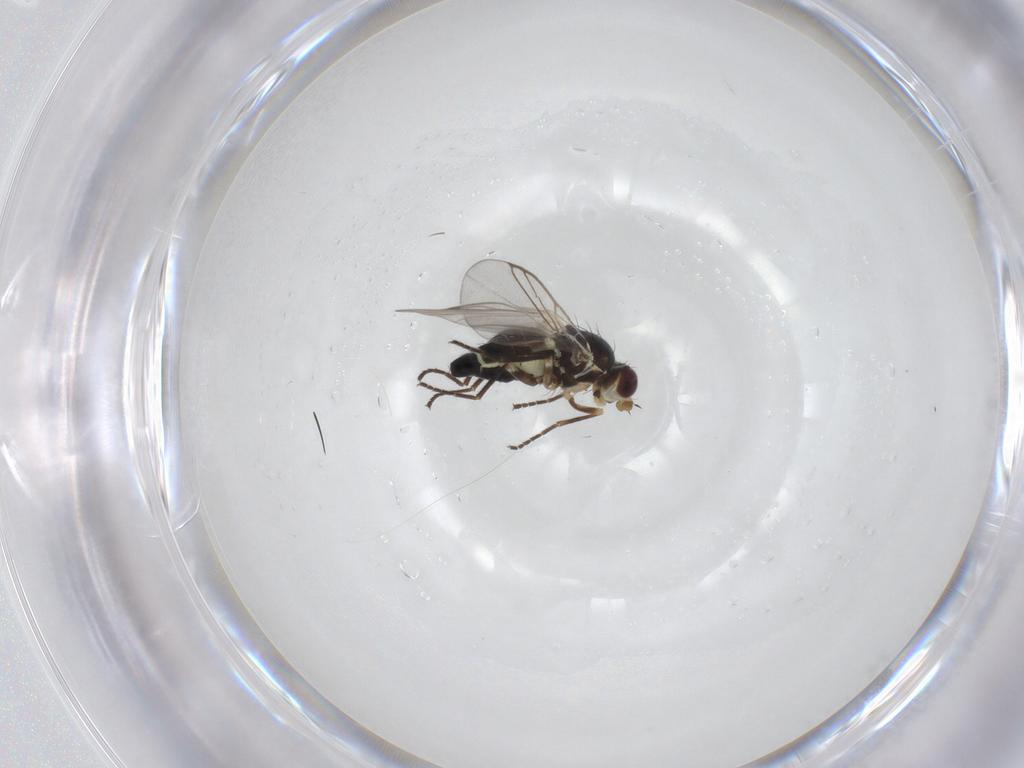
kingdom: Animalia
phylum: Arthropoda
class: Insecta
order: Diptera
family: Agromyzidae
